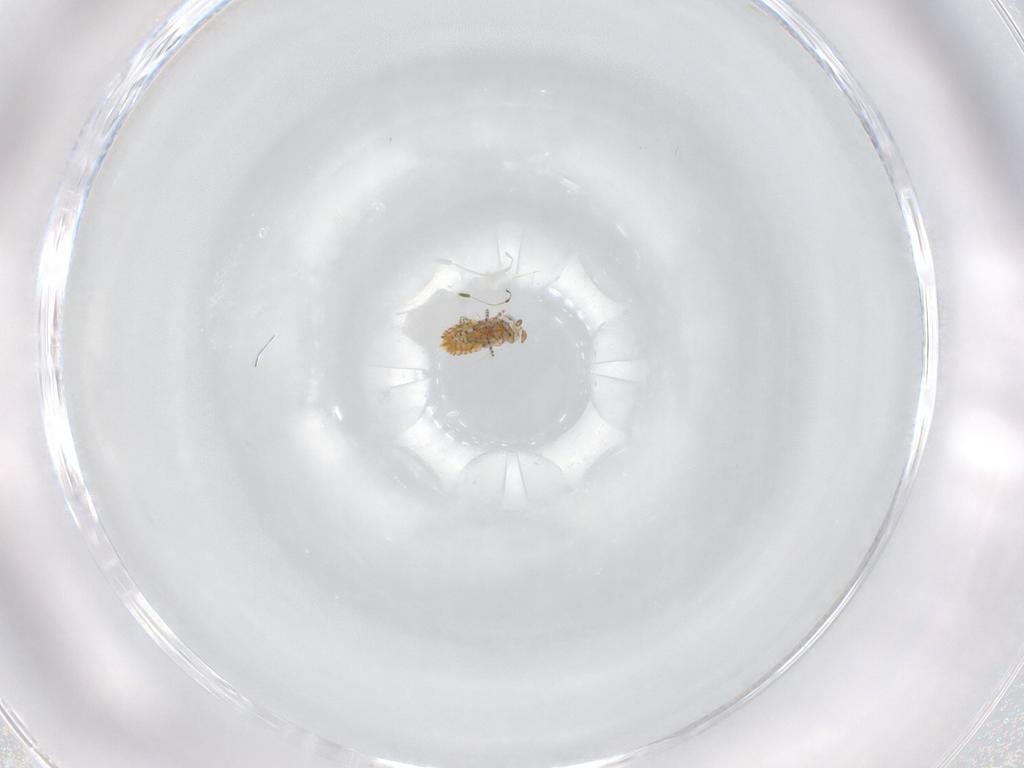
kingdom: Animalia
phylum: Arthropoda
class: Insecta
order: Hymenoptera
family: Aphelinidae
